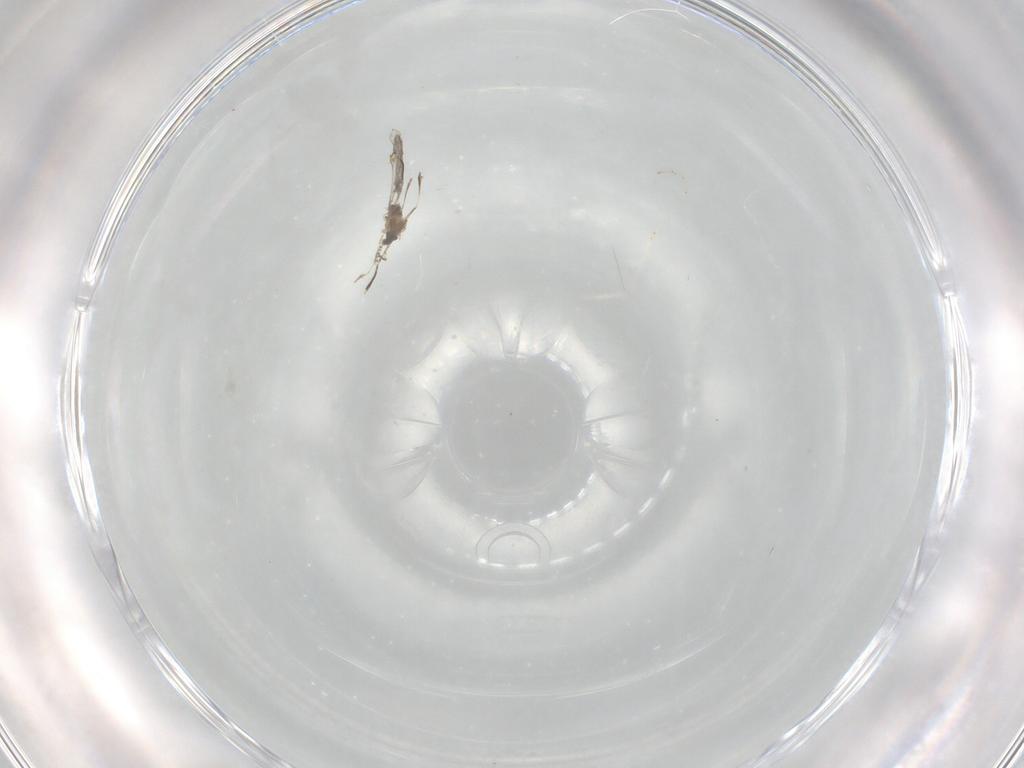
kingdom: Animalia
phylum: Arthropoda
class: Insecta
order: Diptera
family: Cecidomyiidae
